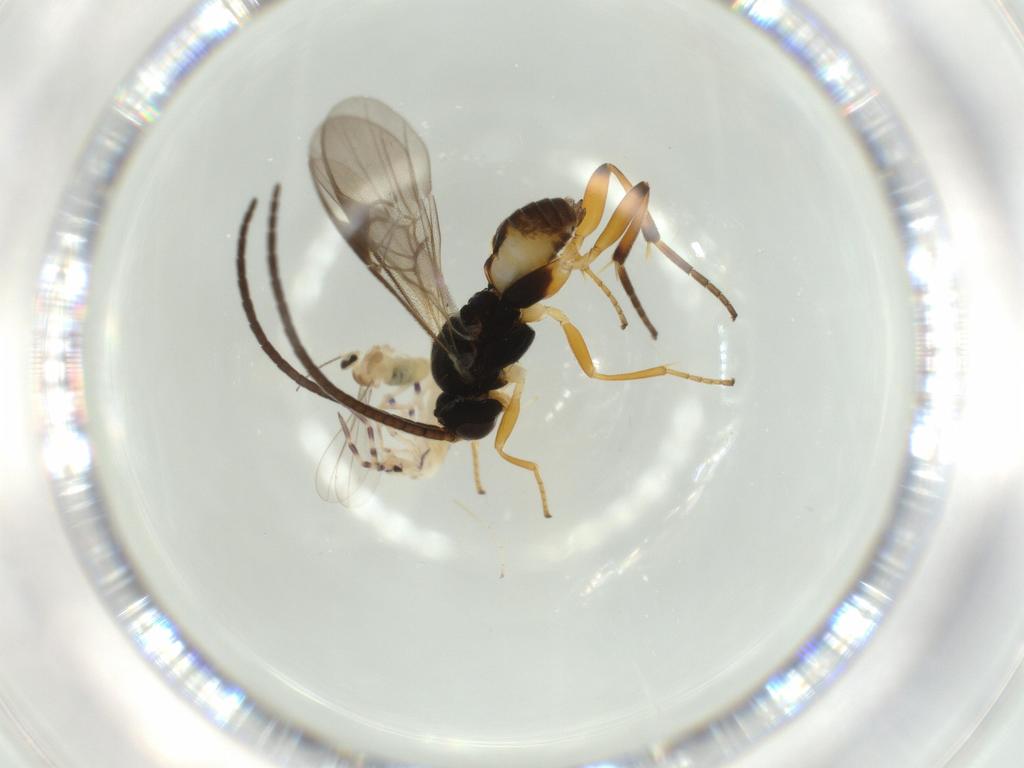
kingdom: Animalia
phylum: Arthropoda
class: Collembola
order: Entomobryomorpha
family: Entomobryidae
